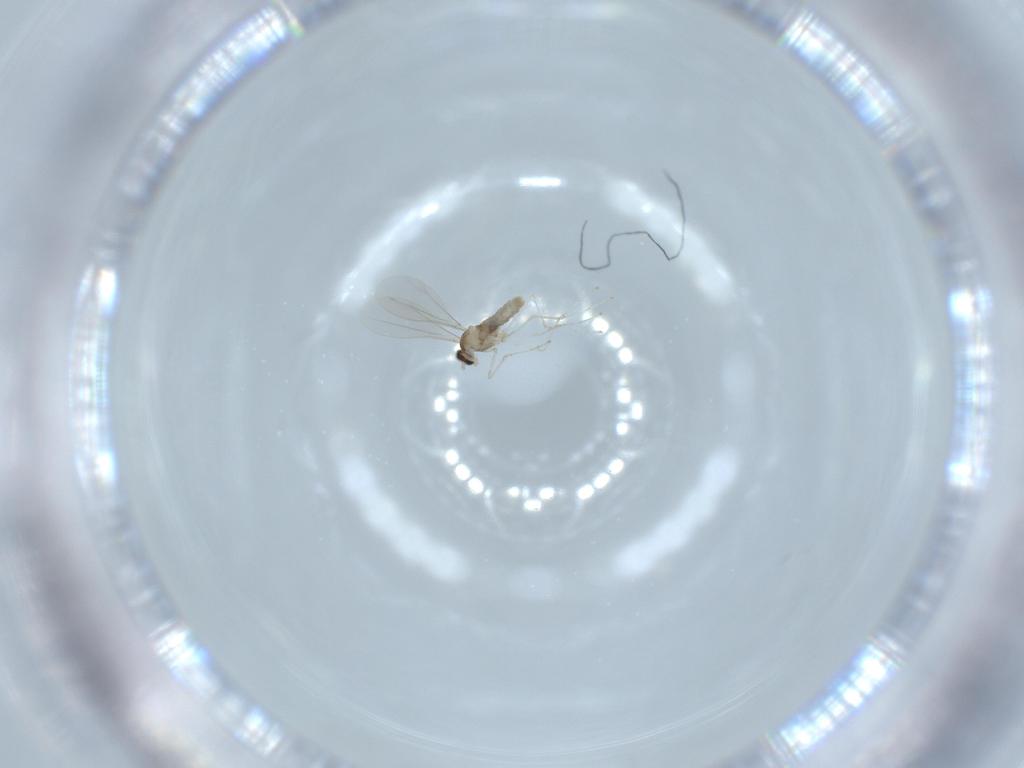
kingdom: Animalia
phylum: Arthropoda
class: Insecta
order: Diptera
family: Cecidomyiidae
